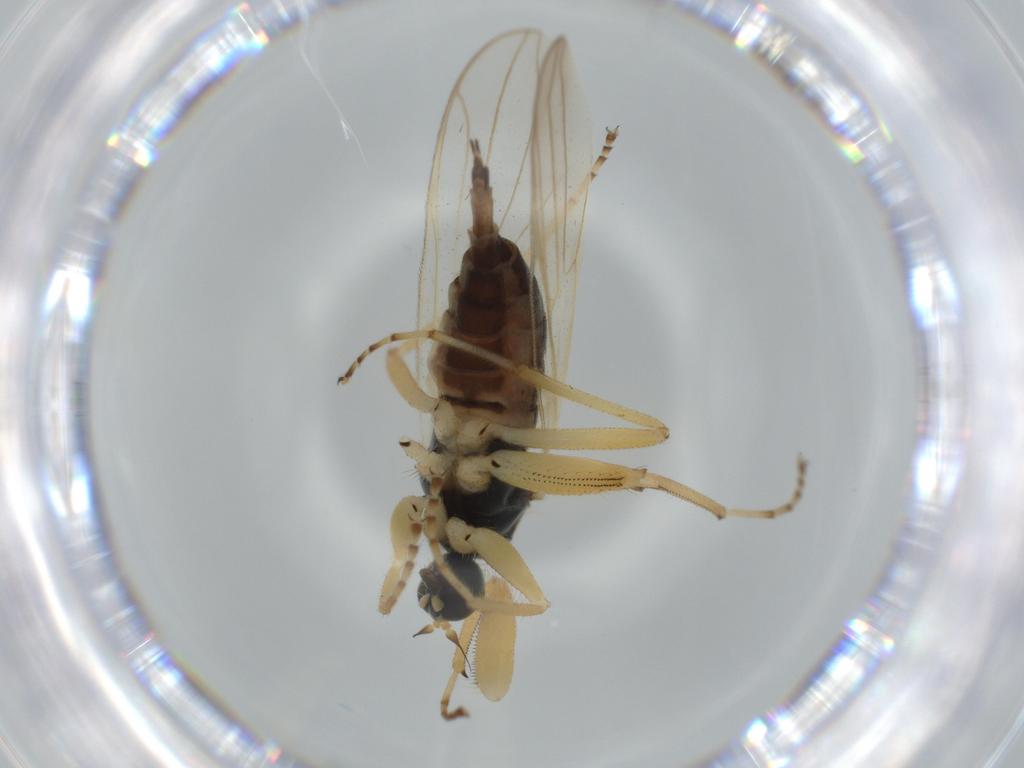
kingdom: Animalia
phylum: Arthropoda
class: Insecta
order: Diptera
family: Hybotidae
